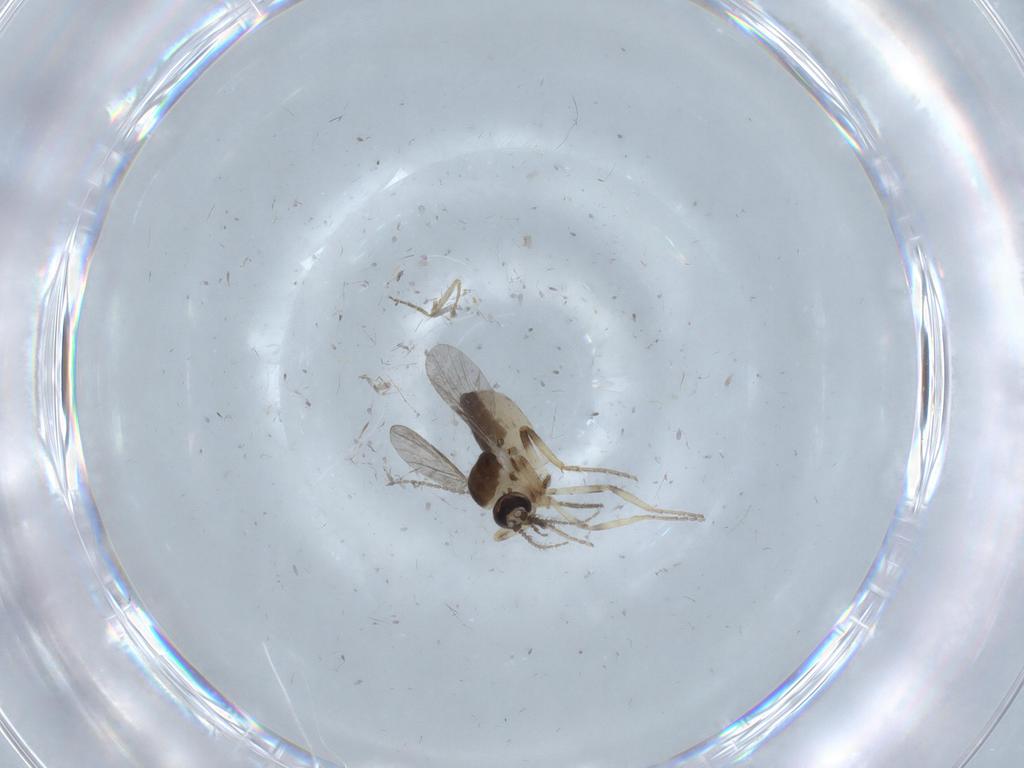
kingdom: Animalia
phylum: Arthropoda
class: Insecta
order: Diptera
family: Ceratopogonidae
